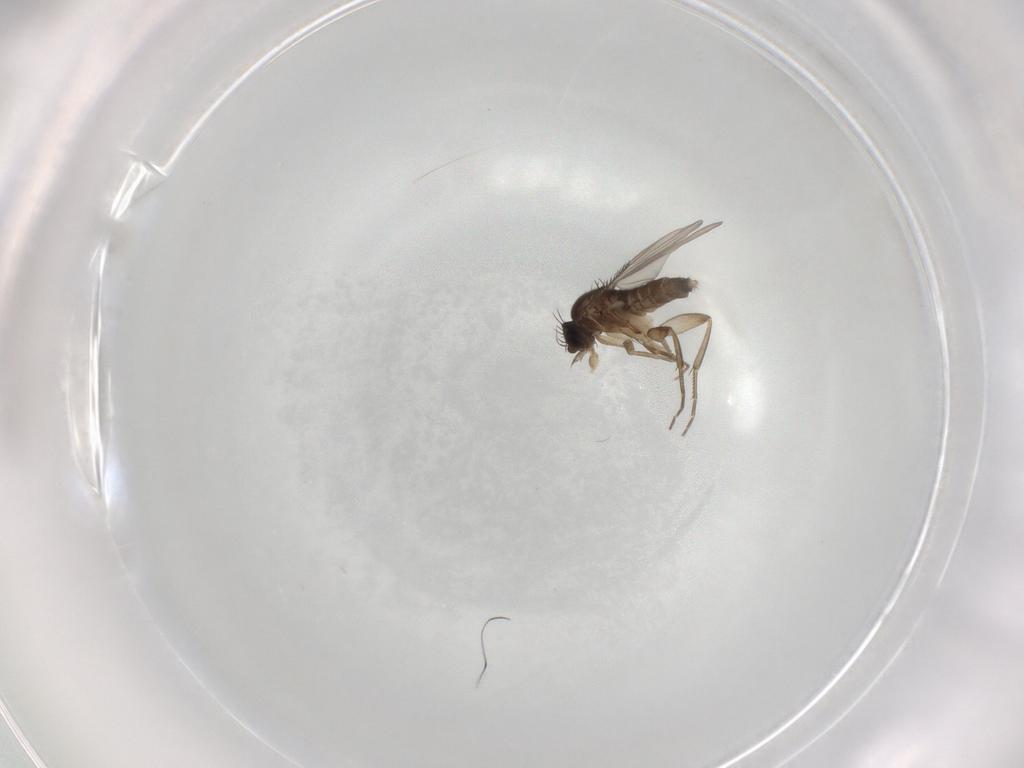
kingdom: Animalia
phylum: Arthropoda
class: Insecta
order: Diptera
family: Phoridae
